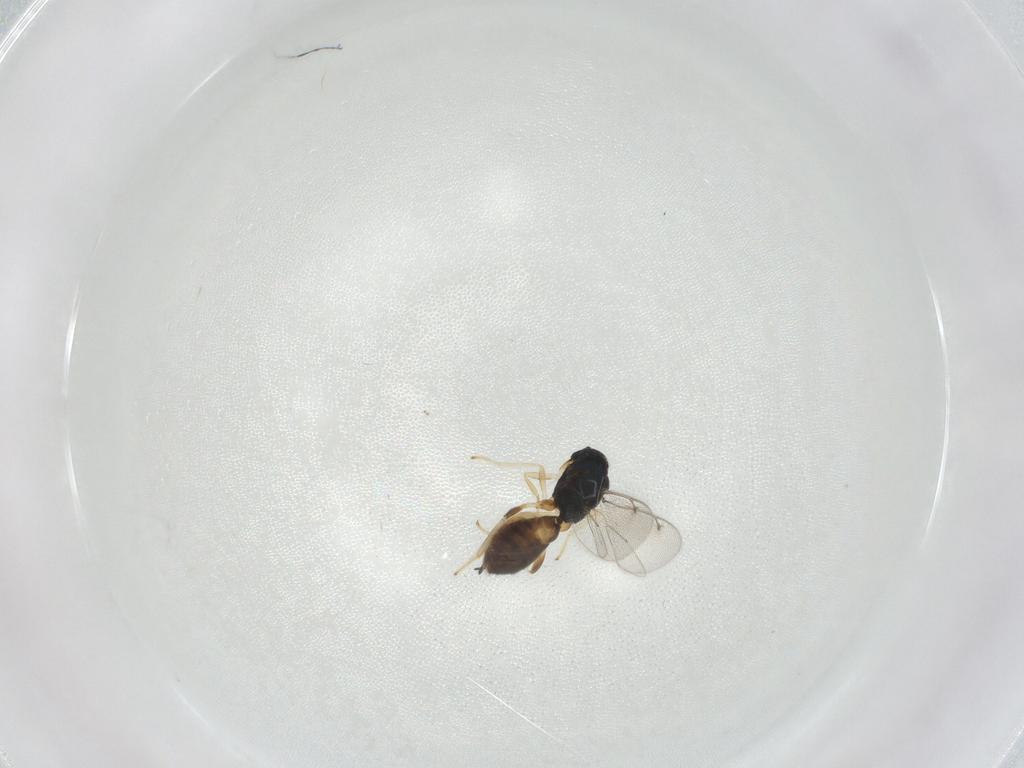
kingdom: Animalia
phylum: Arthropoda
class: Insecta
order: Hymenoptera
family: Eulophidae
